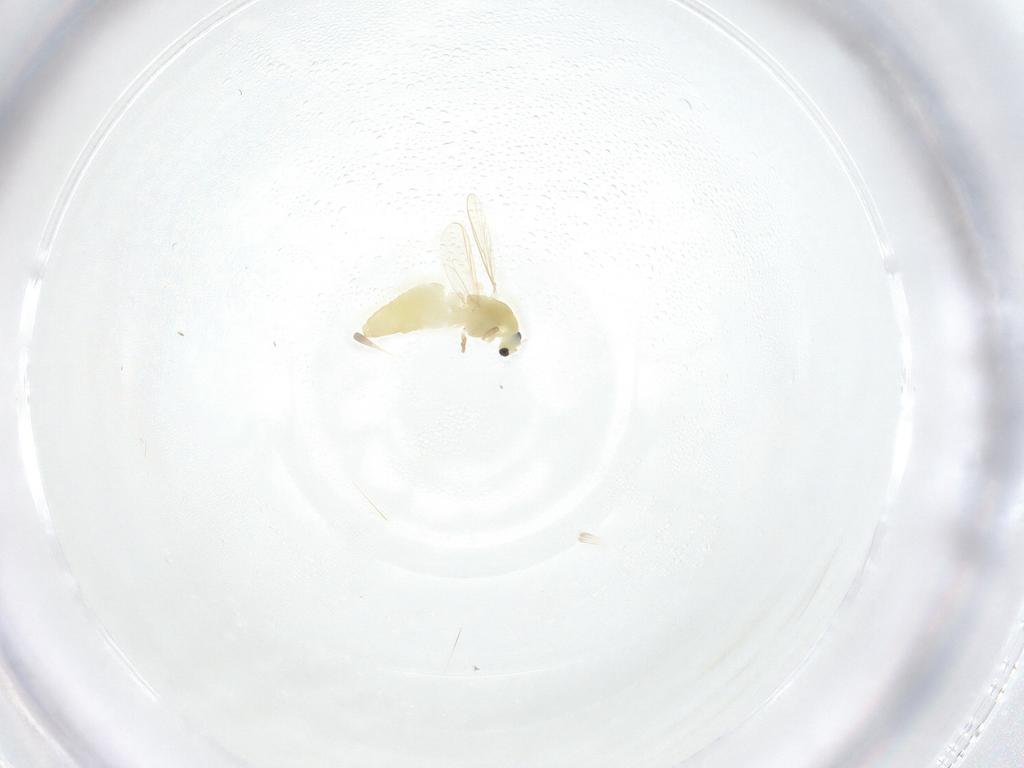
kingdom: Animalia
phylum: Arthropoda
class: Insecta
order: Diptera
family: Chironomidae
